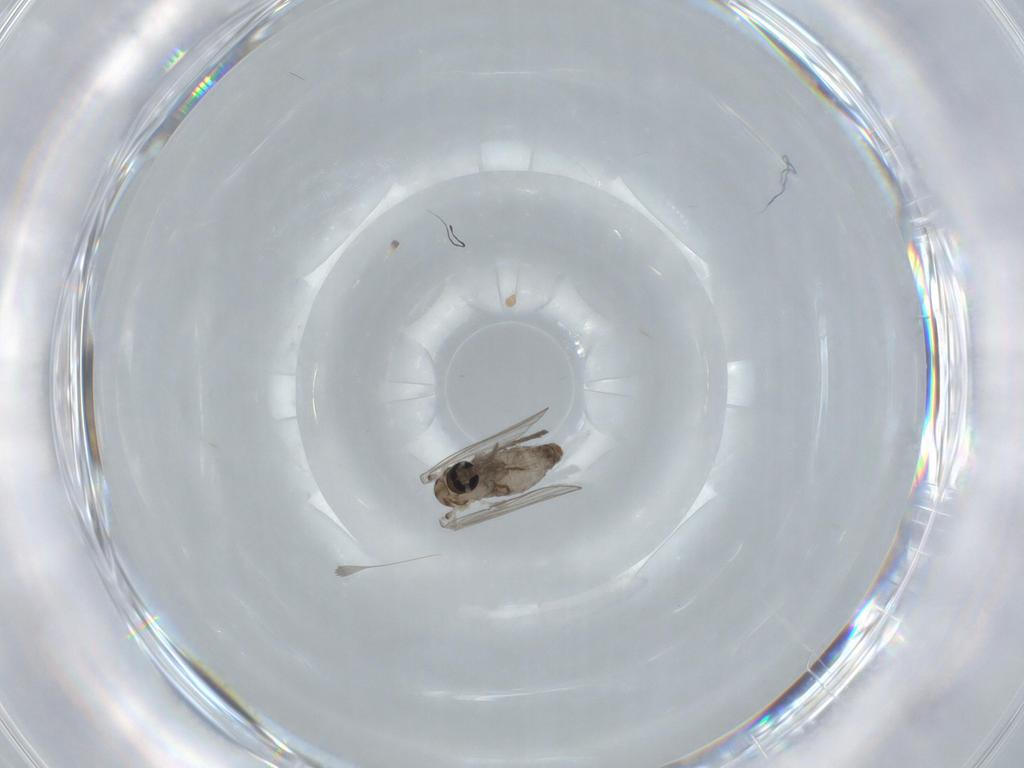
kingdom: Animalia
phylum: Arthropoda
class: Insecta
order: Diptera
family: Psychodidae
